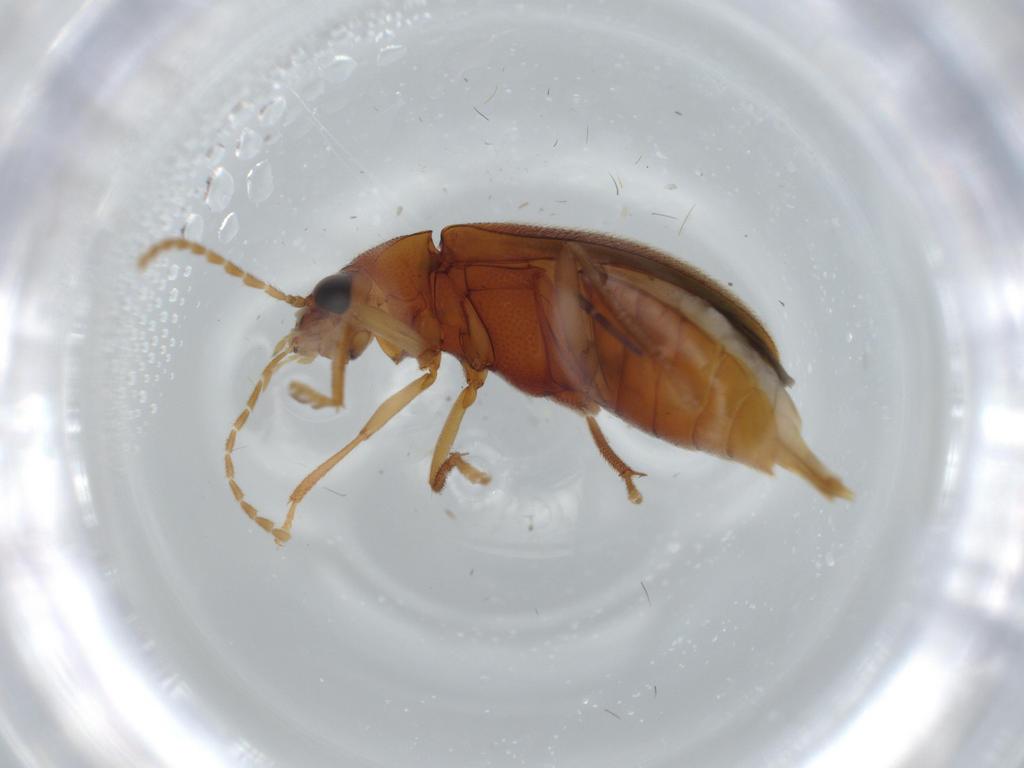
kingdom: Animalia
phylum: Arthropoda
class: Insecta
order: Coleoptera
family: Ptilodactylidae
